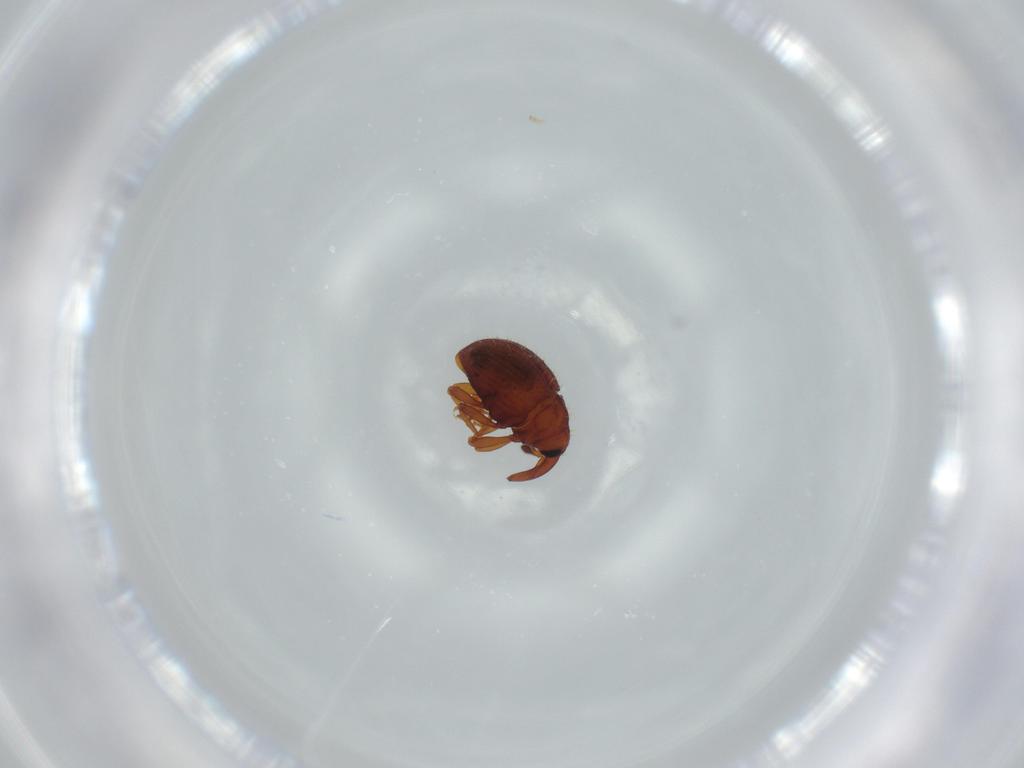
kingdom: Animalia
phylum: Arthropoda
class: Insecta
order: Coleoptera
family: Curculionidae
